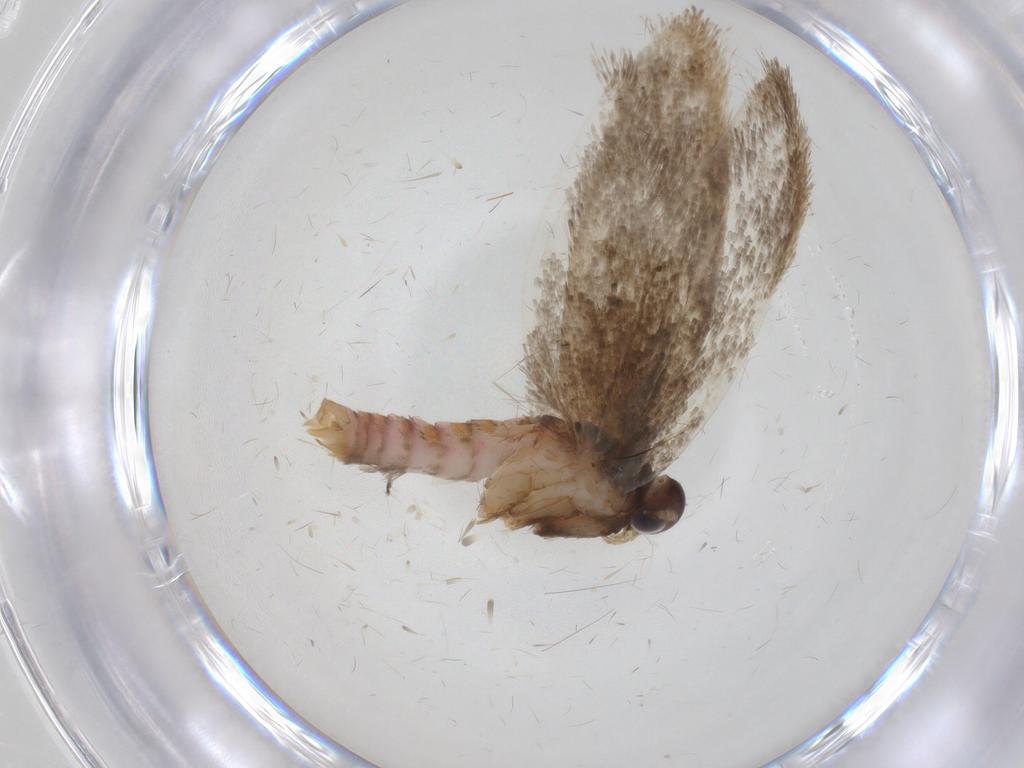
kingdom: Animalia
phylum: Arthropoda
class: Insecta
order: Lepidoptera
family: Oecophoridae
